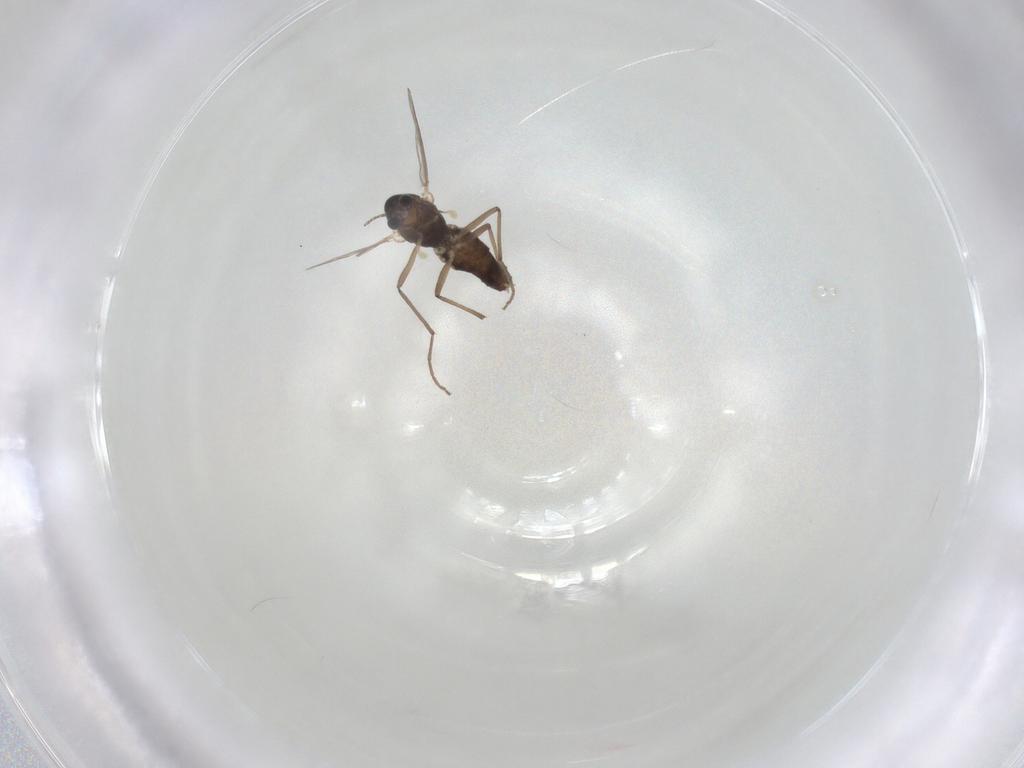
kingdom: Animalia
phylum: Arthropoda
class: Insecta
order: Diptera
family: Chironomidae
